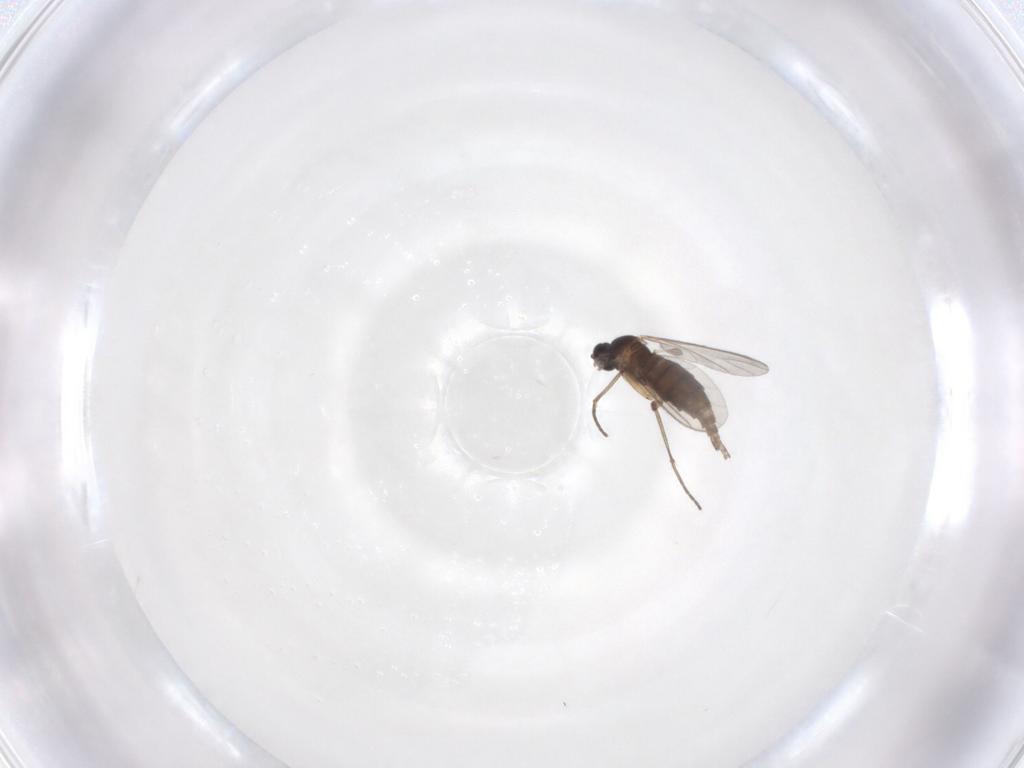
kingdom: Animalia
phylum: Arthropoda
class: Insecta
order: Diptera
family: Sciaridae
